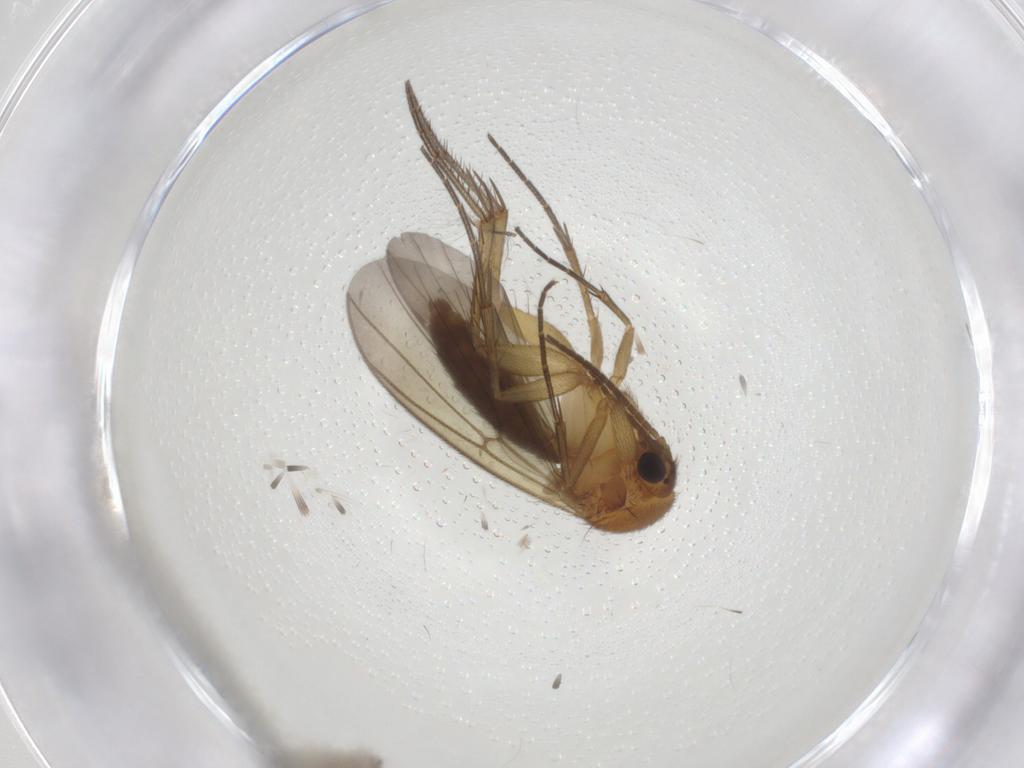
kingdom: Animalia
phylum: Arthropoda
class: Insecta
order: Diptera
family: Mycetophilidae
